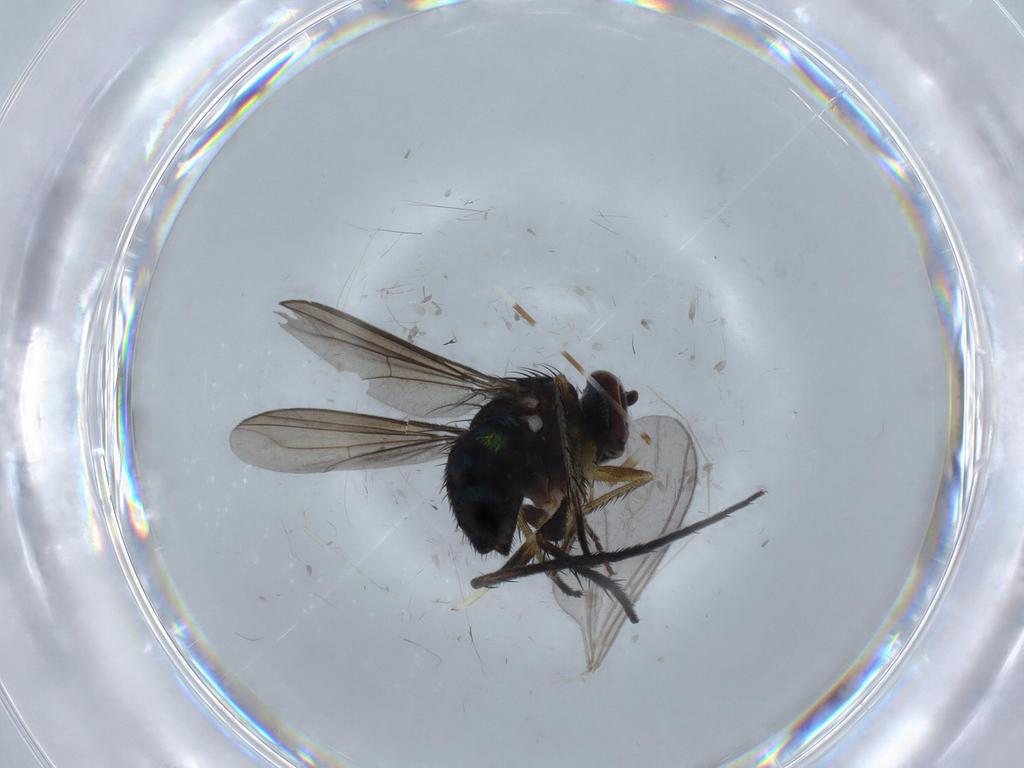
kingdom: Animalia
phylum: Arthropoda
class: Insecta
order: Diptera
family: Dolichopodidae
